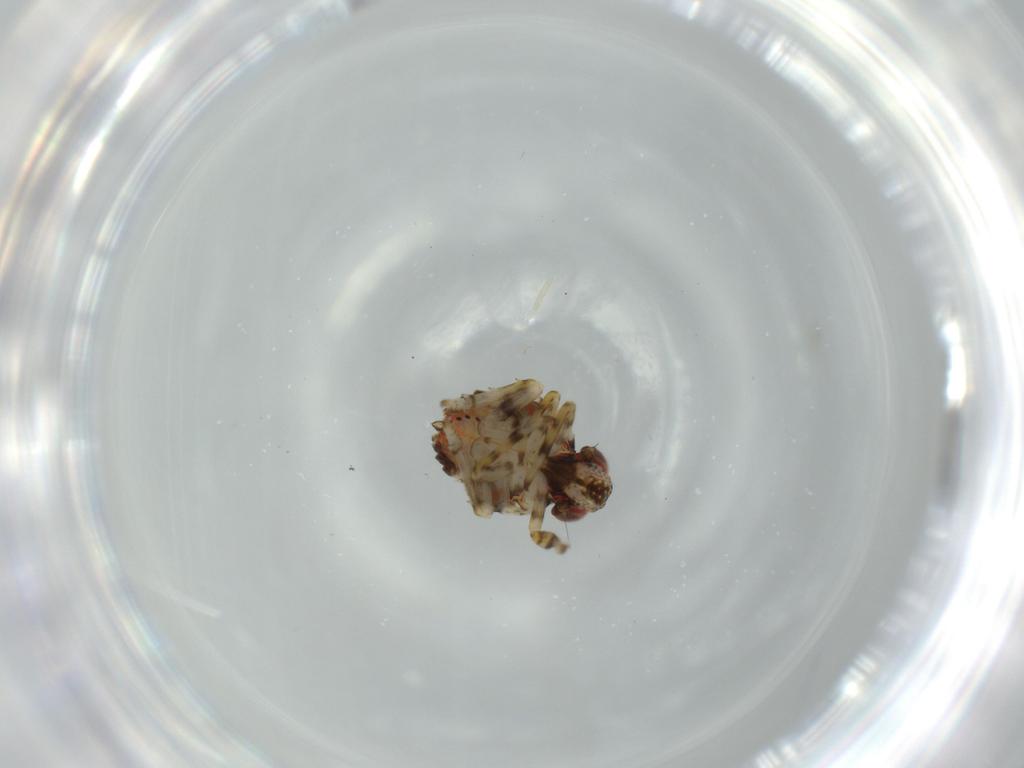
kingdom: Animalia
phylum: Arthropoda
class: Insecta
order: Hemiptera
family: Issidae
